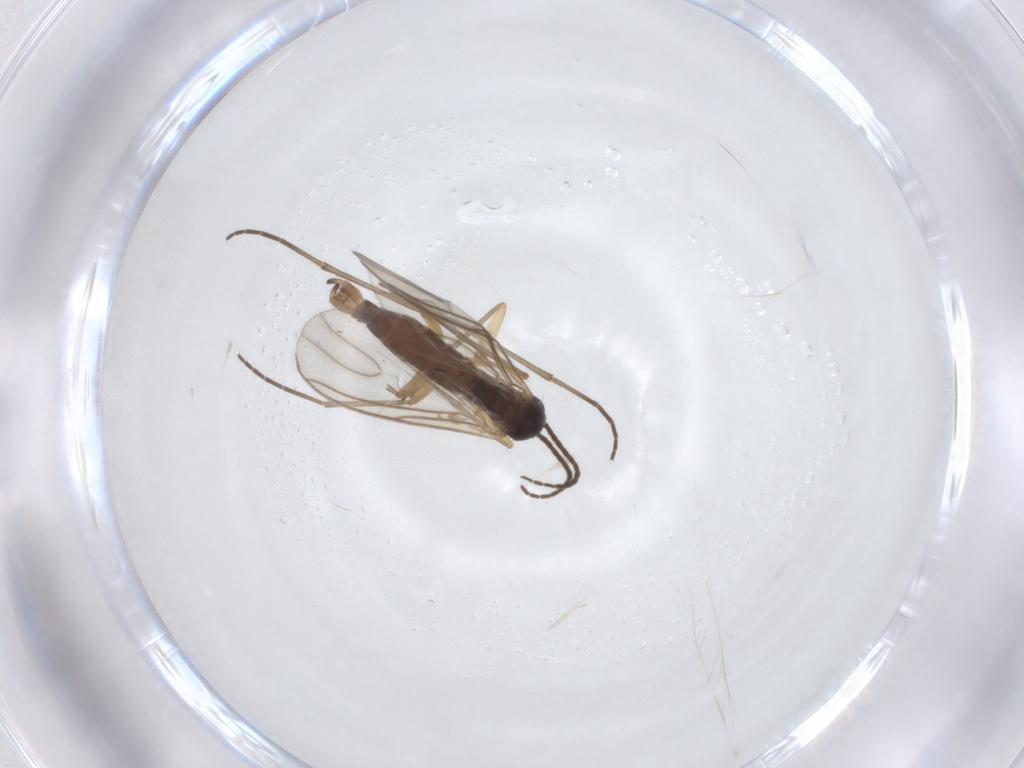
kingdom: Animalia
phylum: Arthropoda
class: Insecta
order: Diptera
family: Sciaridae
